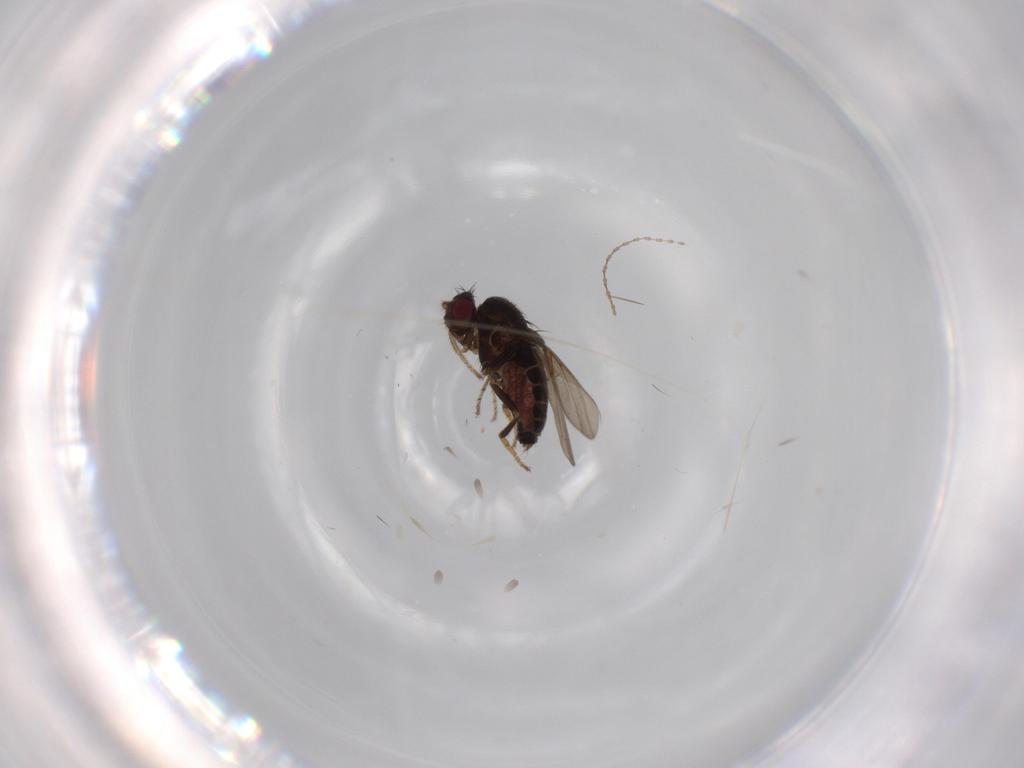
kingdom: Animalia
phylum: Arthropoda
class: Insecta
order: Diptera
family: Sphaeroceridae
